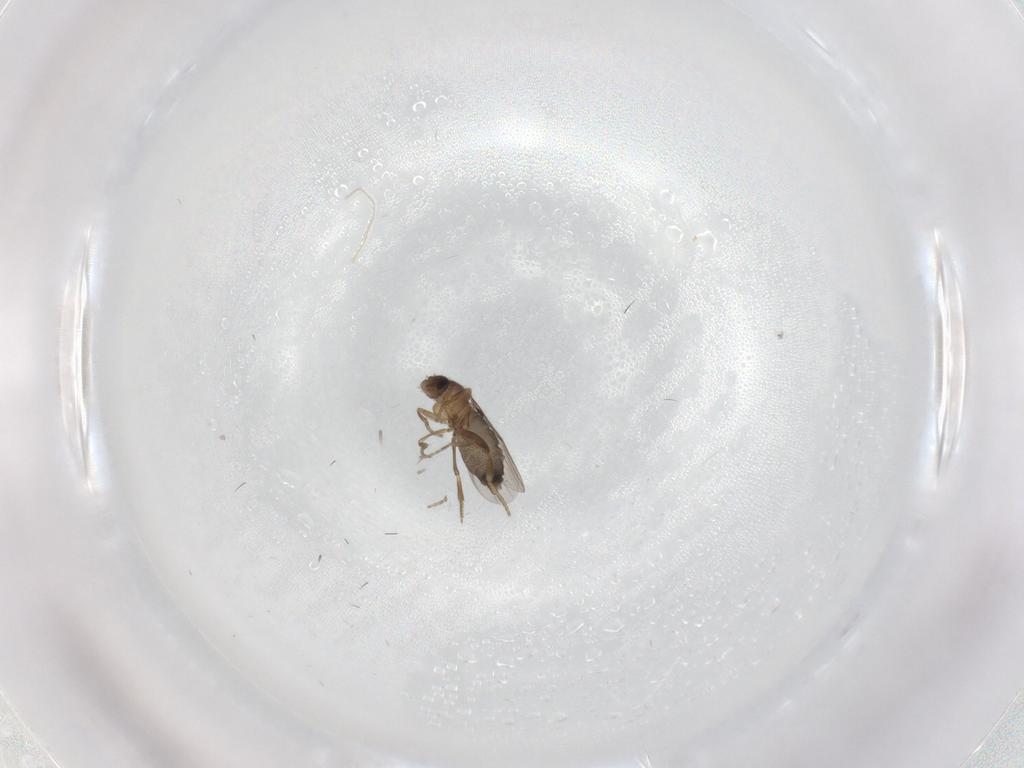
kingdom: Animalia
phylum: Arthropoda
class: Insecta
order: Diptera
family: Phoridae
